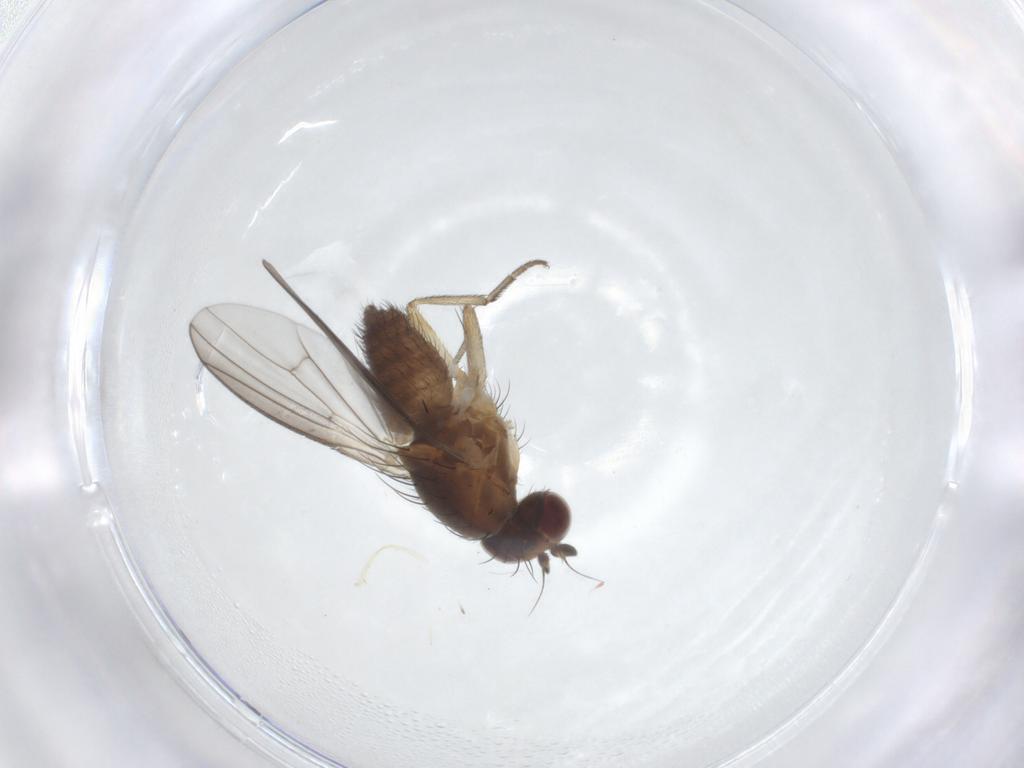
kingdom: Animalia
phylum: Arthropoda
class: Insecta
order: Diptera
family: Heleomyzidae
